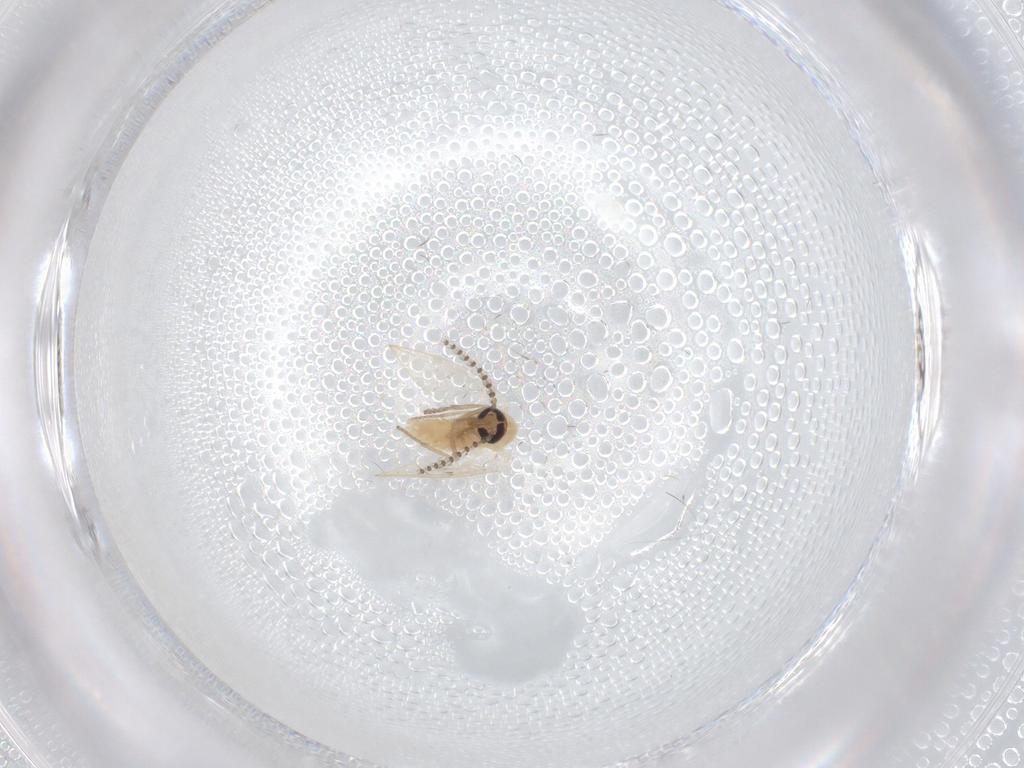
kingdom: Animalia
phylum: Arthropoda
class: Insecta
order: Diptera
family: Psychodidae
